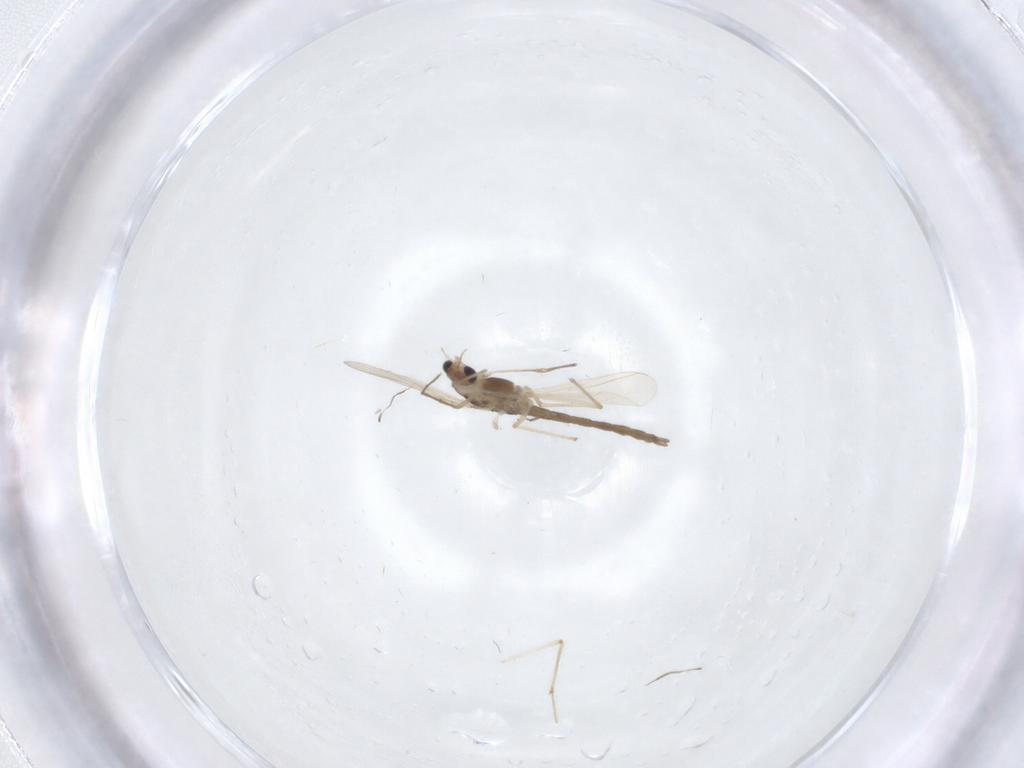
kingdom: Animalia
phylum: Arthropoda
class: Insecta
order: Diptera
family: Chironomidae
